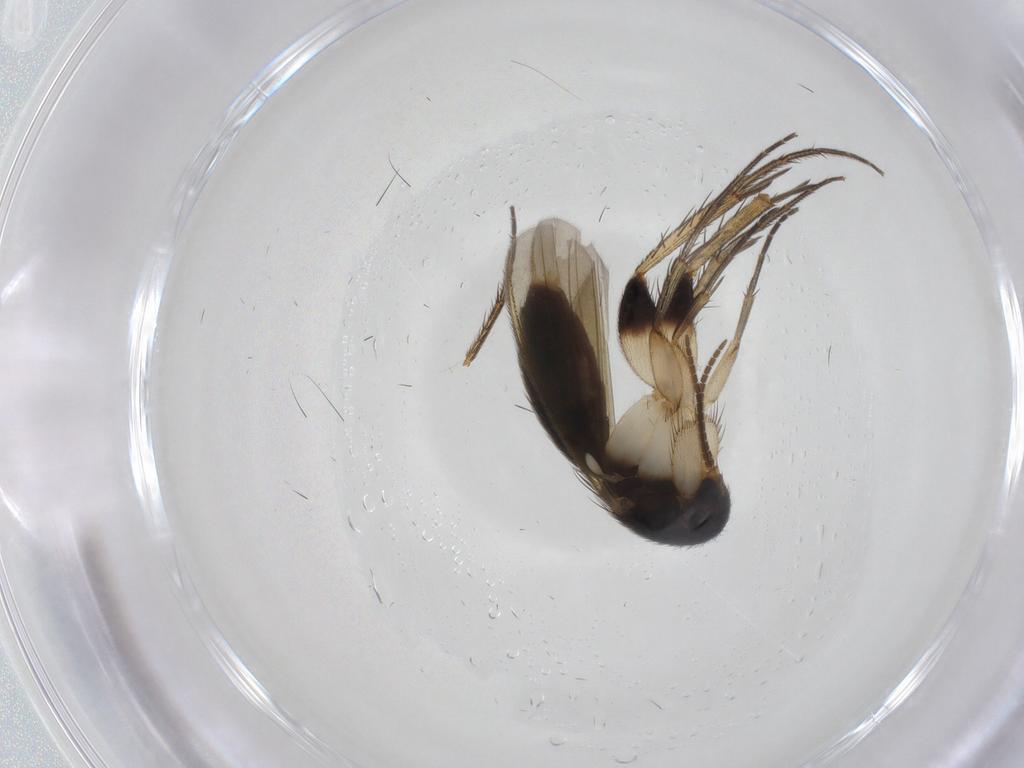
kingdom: Animalia
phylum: Arthropoda
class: Insecta
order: Diptera
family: Mycetophilidae
